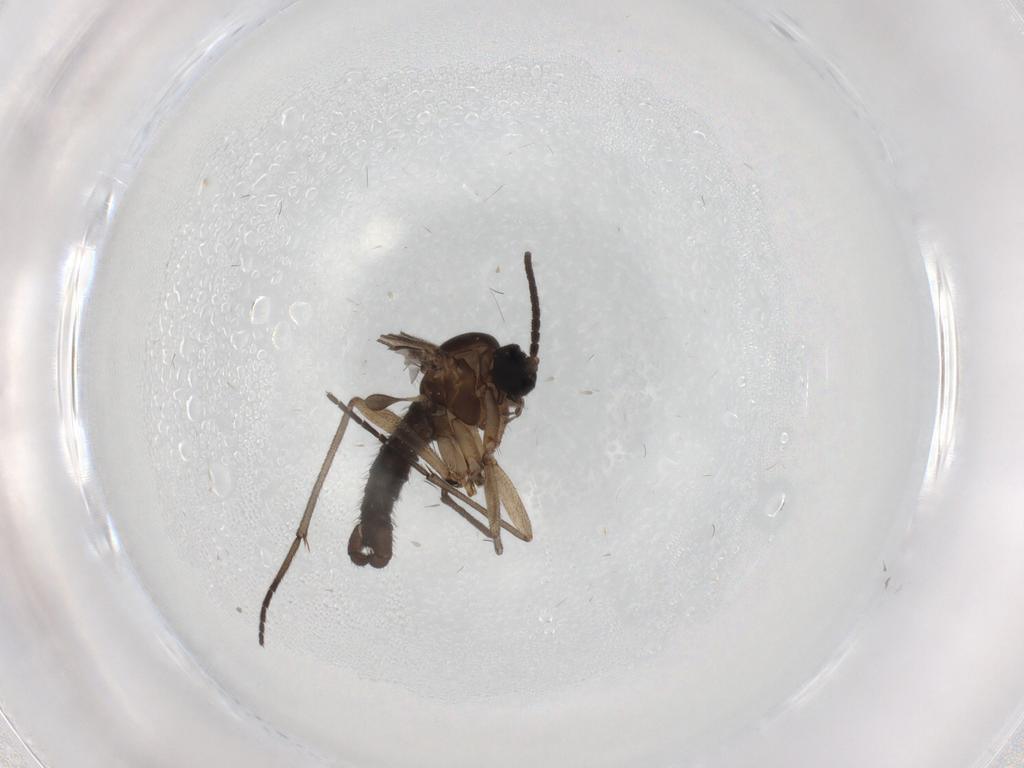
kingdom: Animalia
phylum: Arthropoda
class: Insecta
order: Diptera
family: Sciaridae
